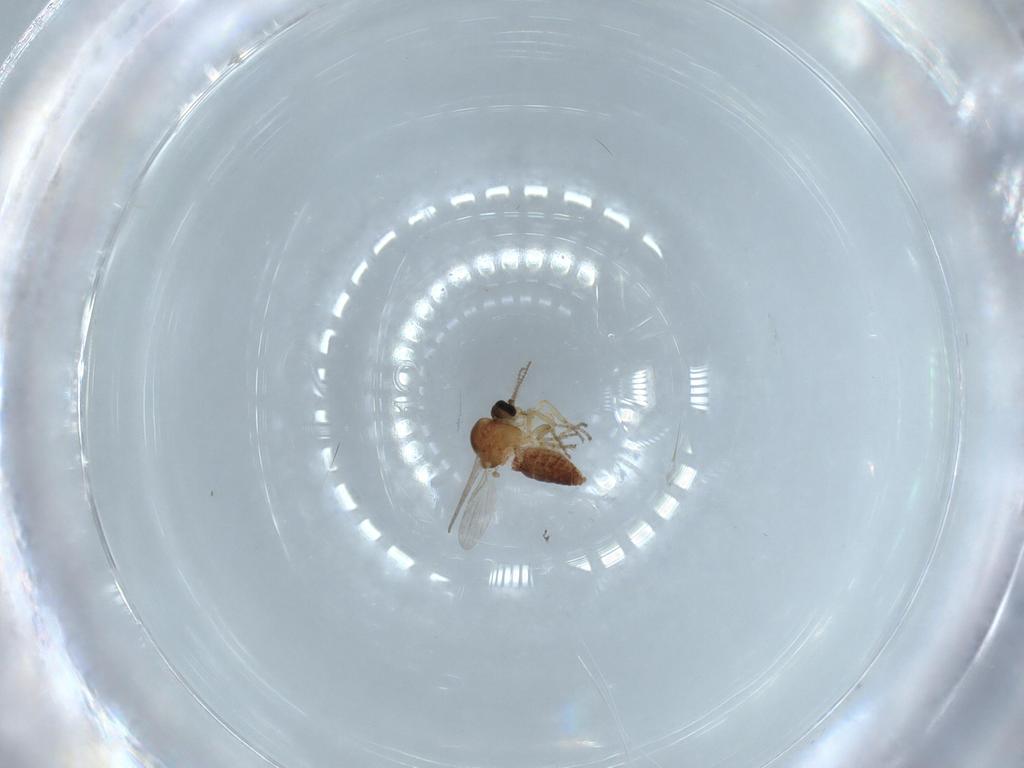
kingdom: Animalia
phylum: Arthropoda
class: Insecta
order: Diptera
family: Ceratopogonidae
